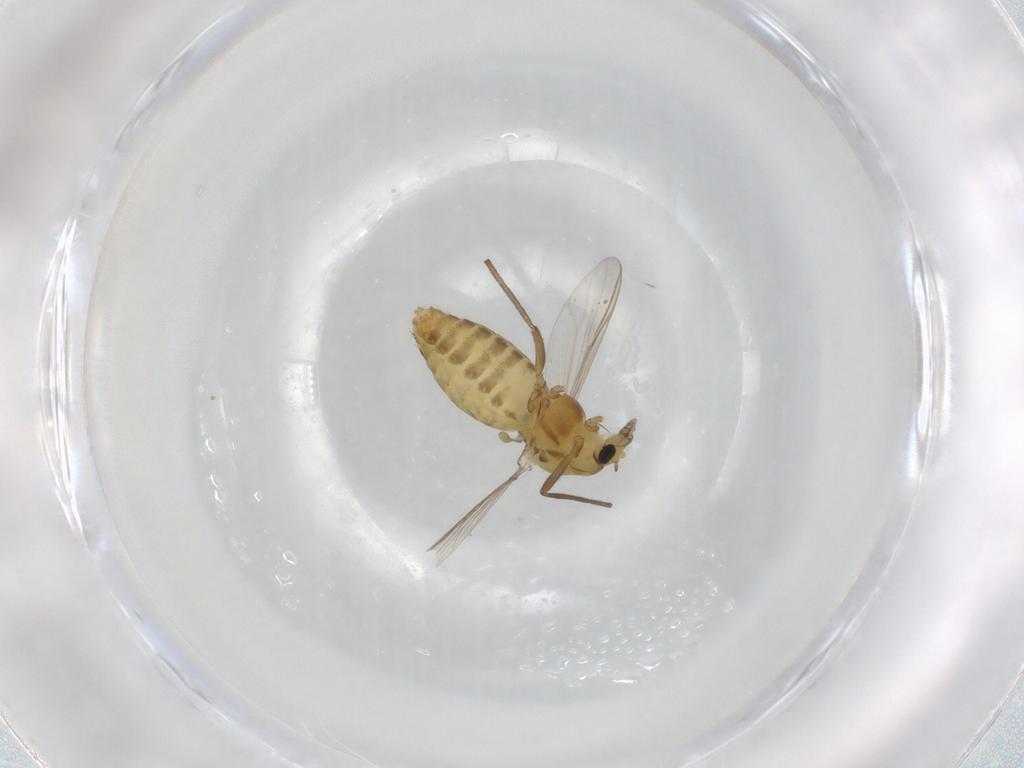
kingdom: Animalia
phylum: Arthropoda
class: Insecta
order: Diptera
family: Chironomidae
